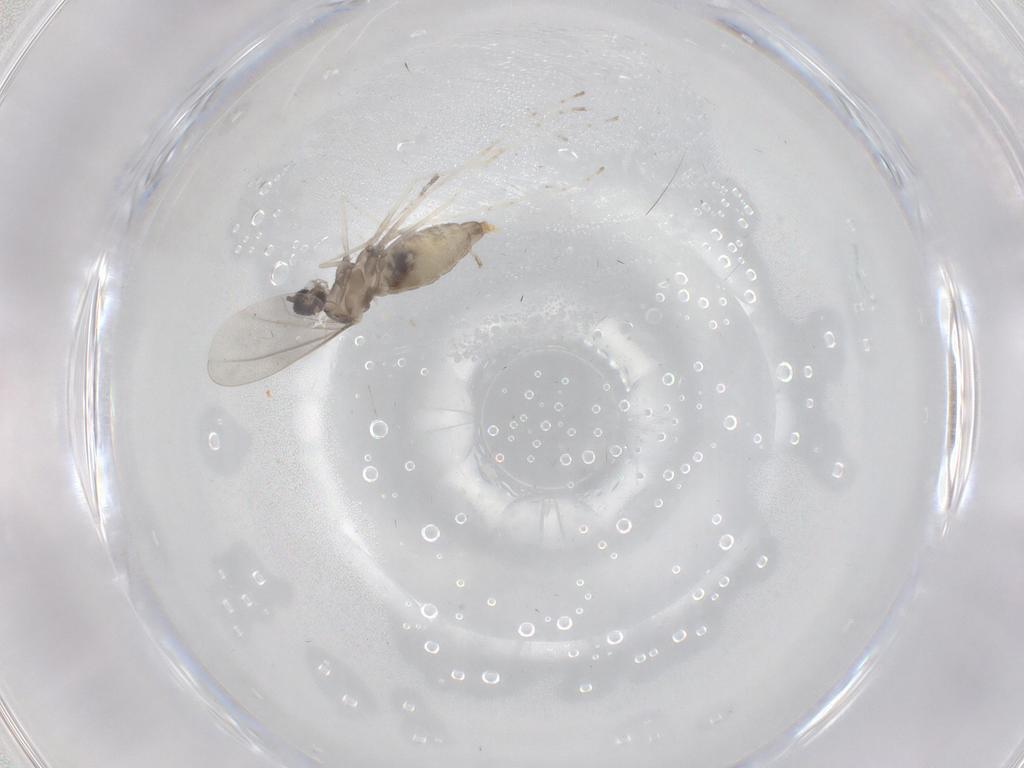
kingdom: Animalia
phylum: Arthropoda
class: Insecta
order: Diptera
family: Cecidomyiidae
